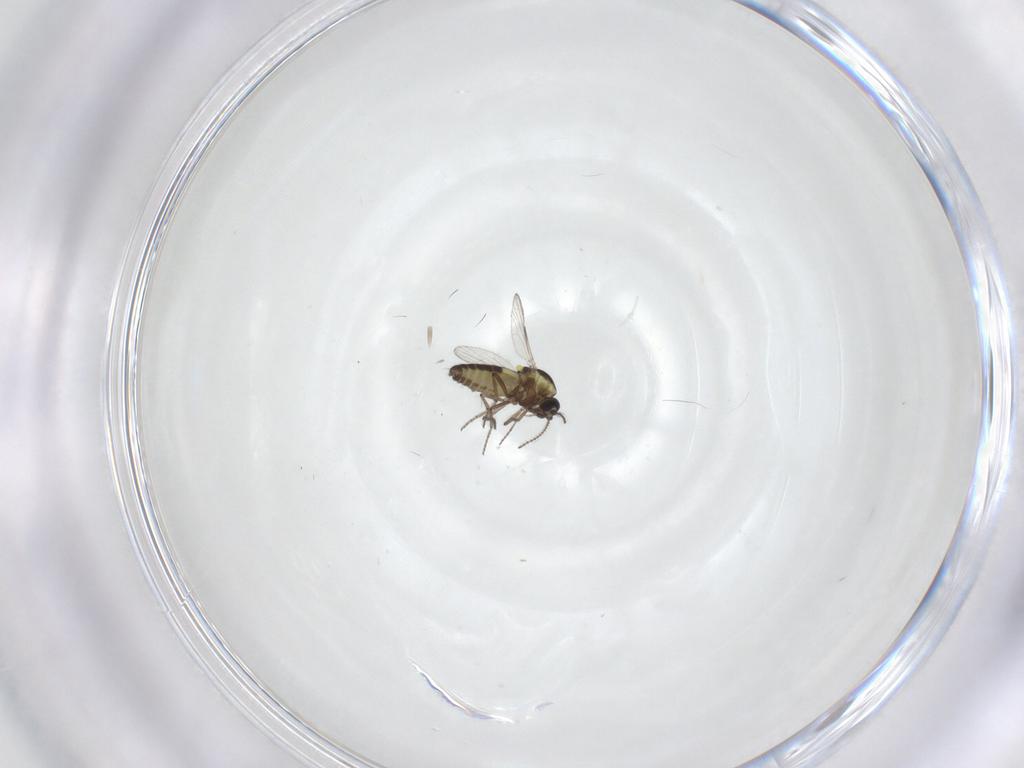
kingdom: Animalia
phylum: Arthropoda
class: Insecta
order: Diptera
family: Ceratopogonidae
